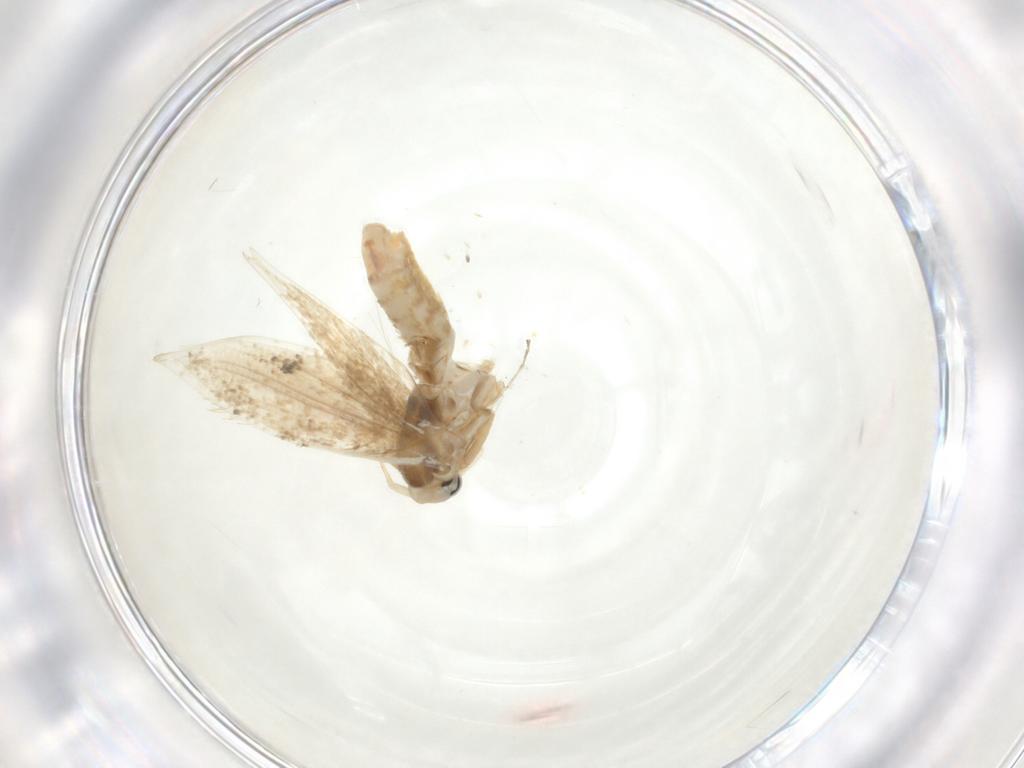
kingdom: Animalia
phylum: Arthropoda
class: Insecta
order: Lepidoptera
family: Bucculatricidae
